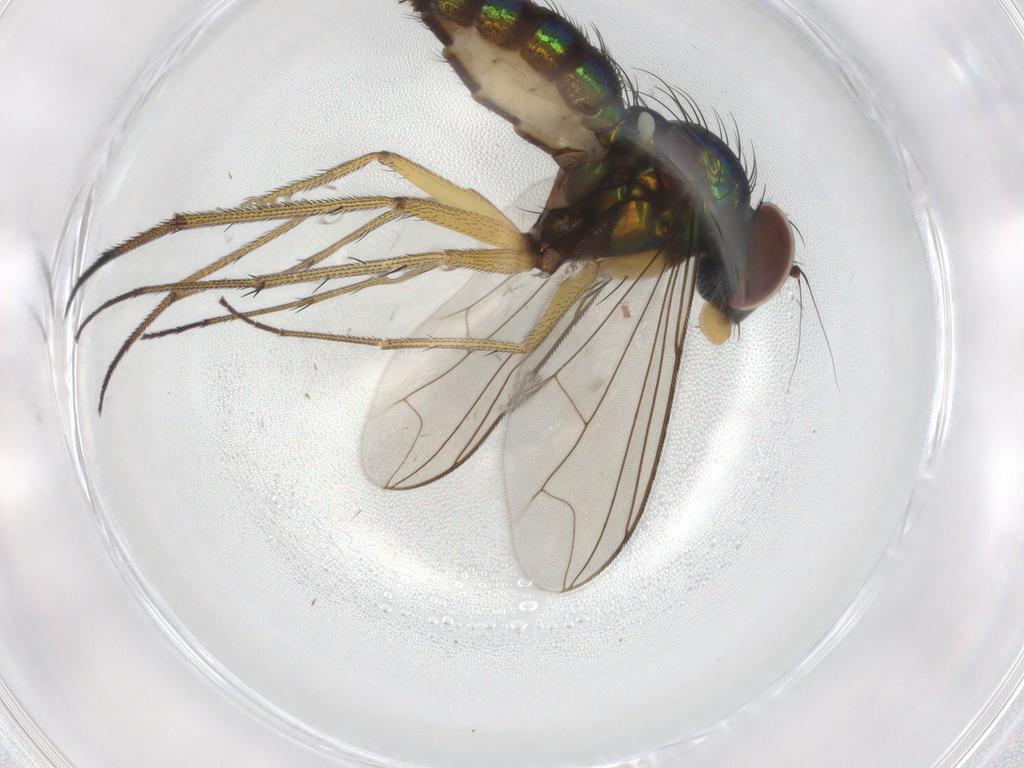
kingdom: Animalia
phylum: Arthropoda
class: Insecta
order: Diptera
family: Dolichopodidae
